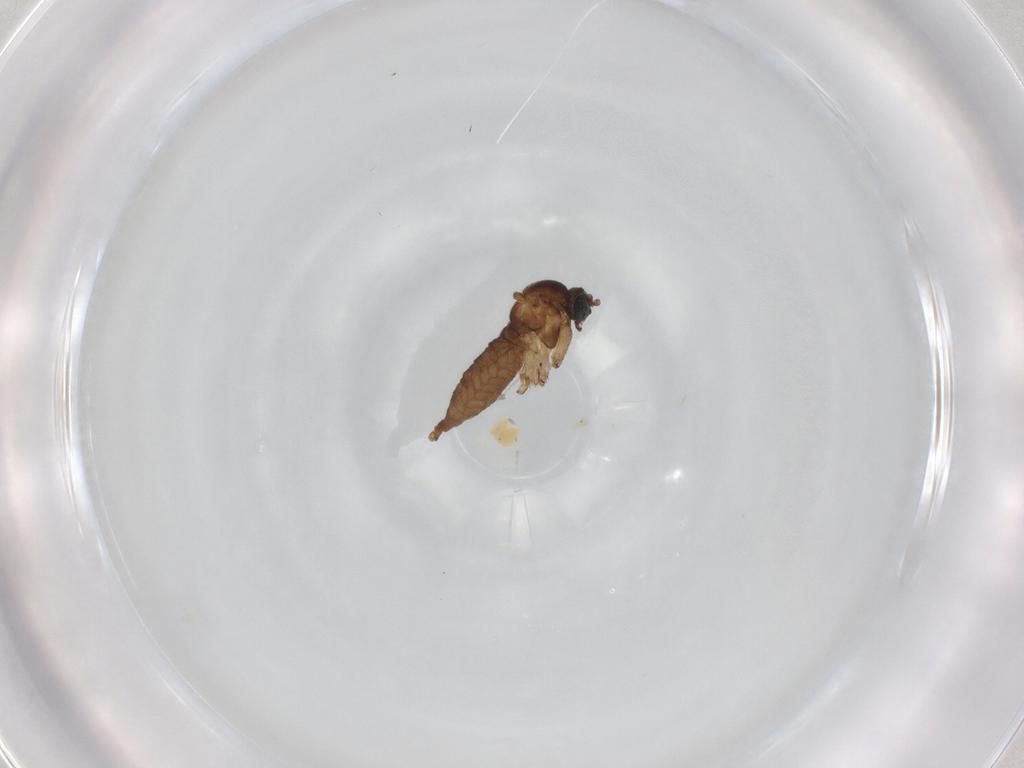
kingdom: Animalia
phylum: Arthropoda
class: Insecta
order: Diptera
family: Sciaridae
